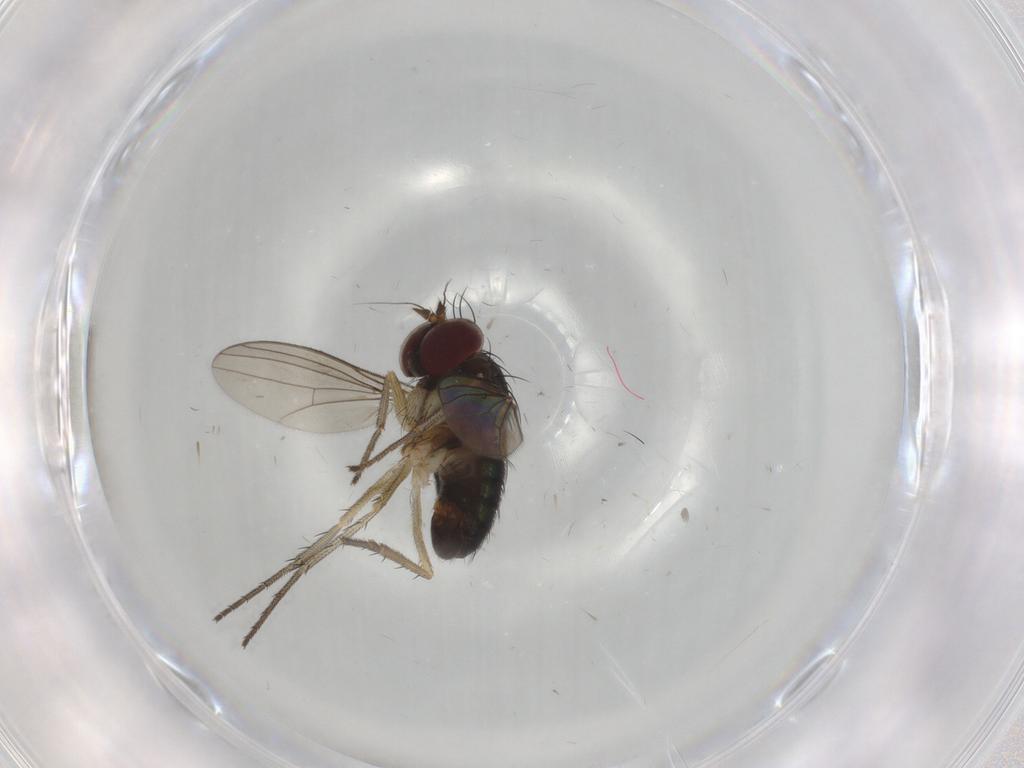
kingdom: Animalia
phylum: Arthropoda
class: Insecta
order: Diptera
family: Dolichopodidae
